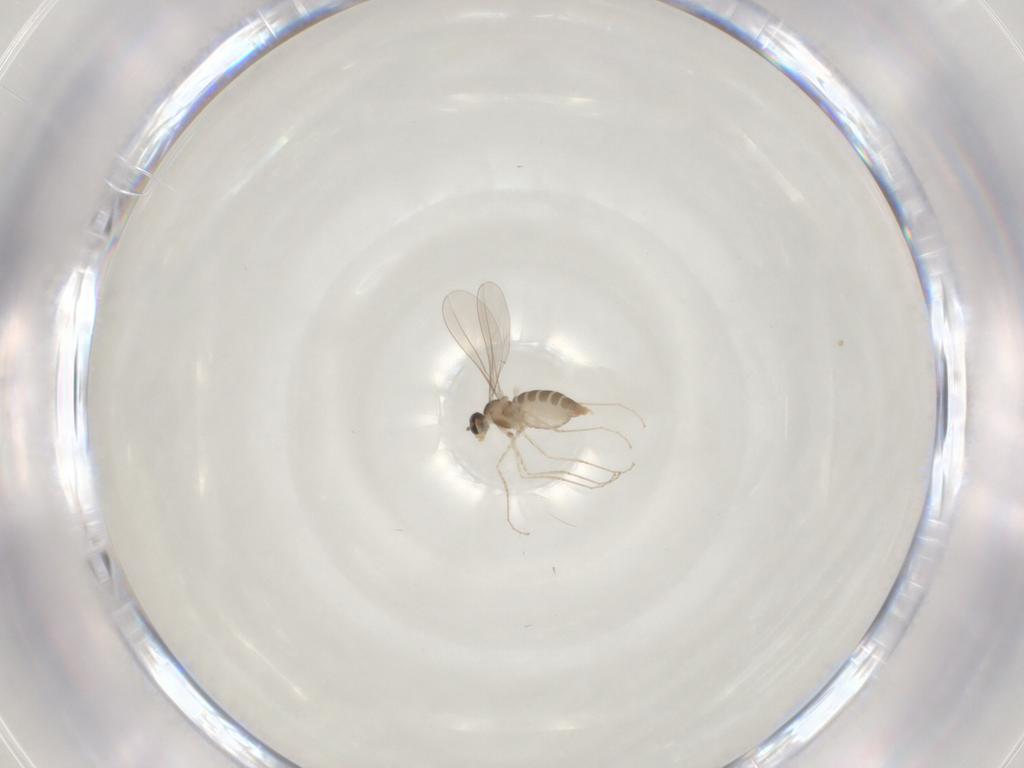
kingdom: Animalia
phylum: Arthropoda
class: Insecta
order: Diptera
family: Cecidomyiidae
